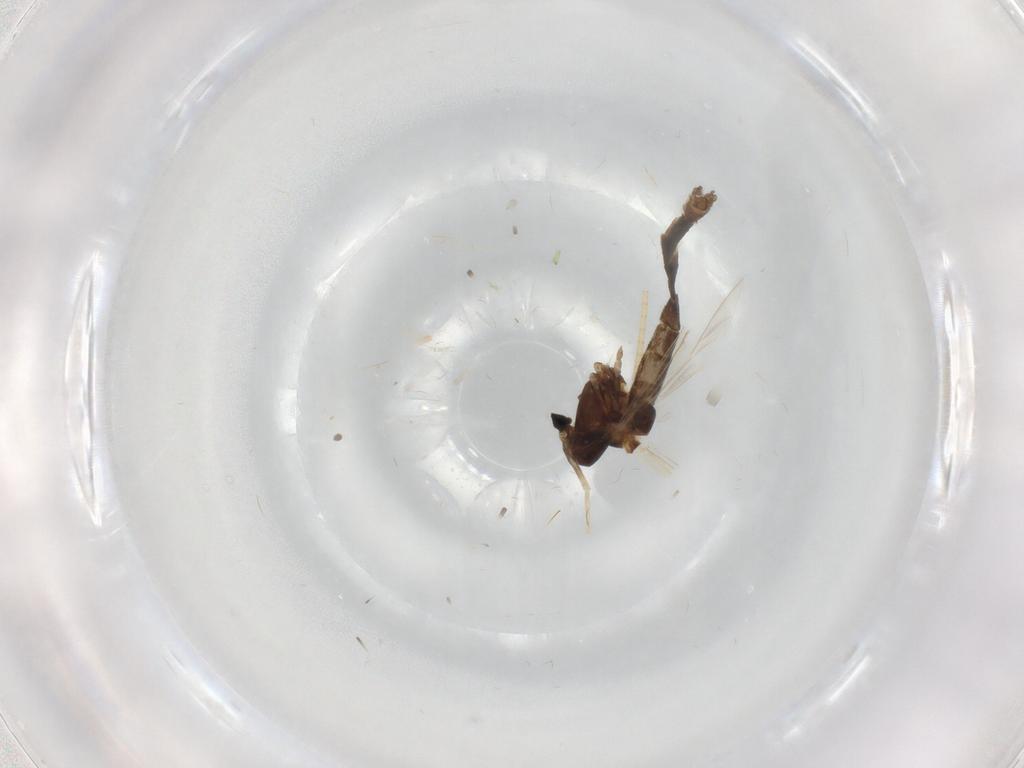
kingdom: Animalia
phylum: Arthropoda
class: Insecta
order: Diptera
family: Chironomidae
